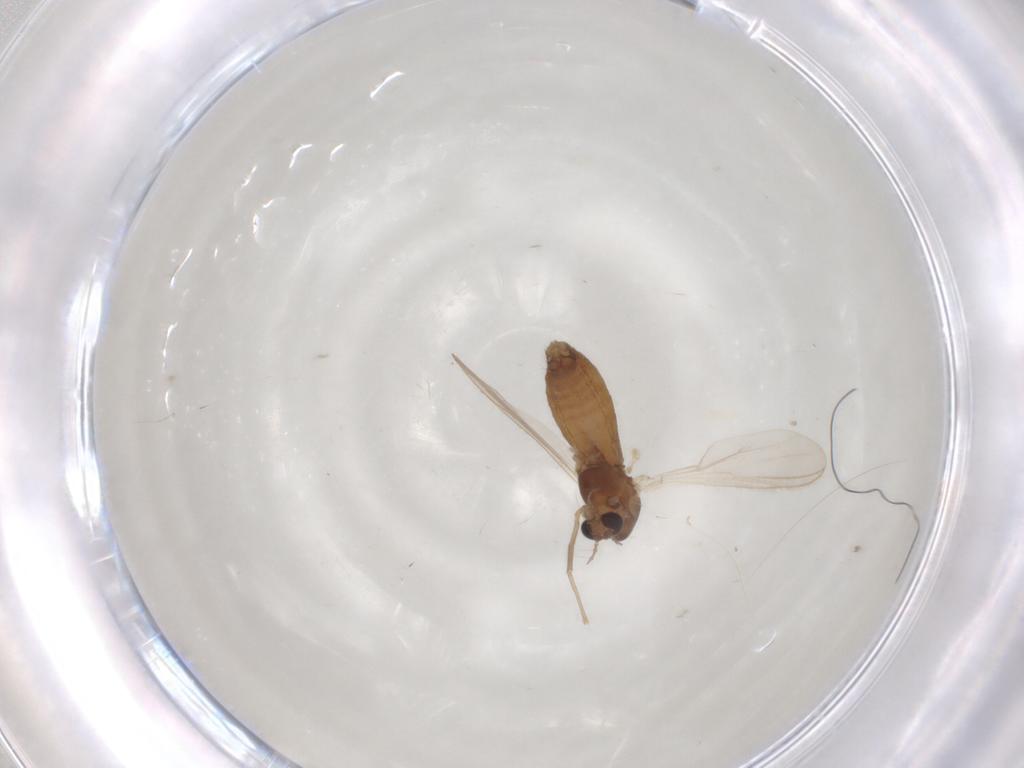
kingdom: Animalia
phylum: Arthropoda
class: Insecta
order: Diptera
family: Chironomidae
